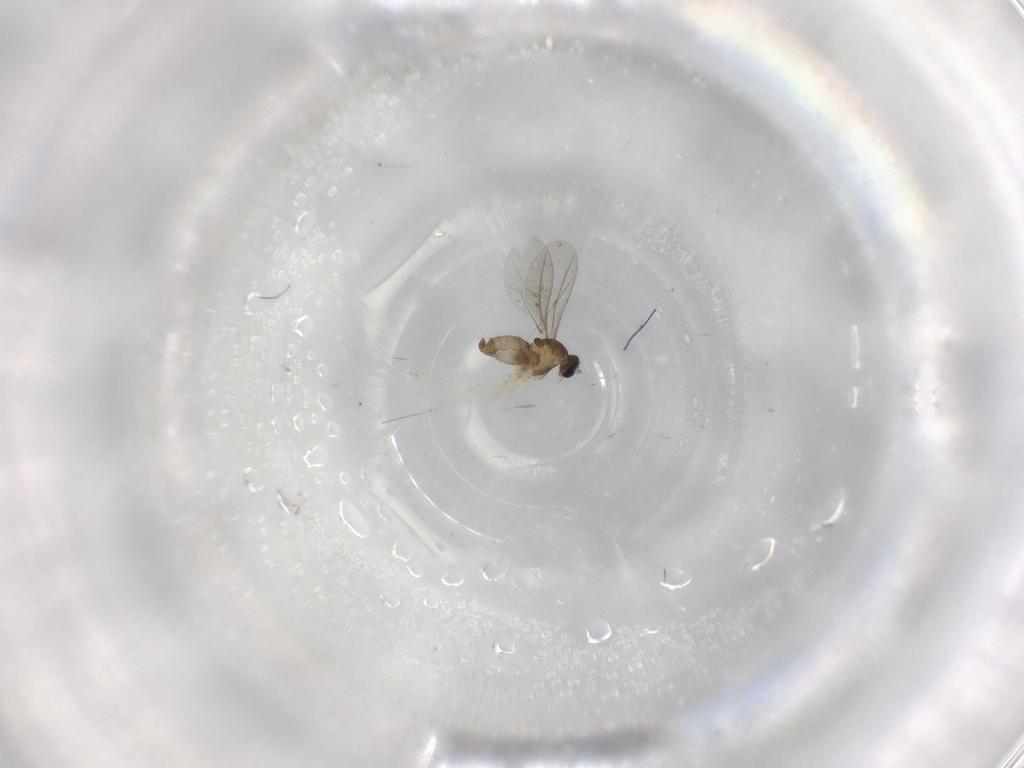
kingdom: Animalia
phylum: Arthropoda
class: Insecta
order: Diptera
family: Cecidomyiidae
